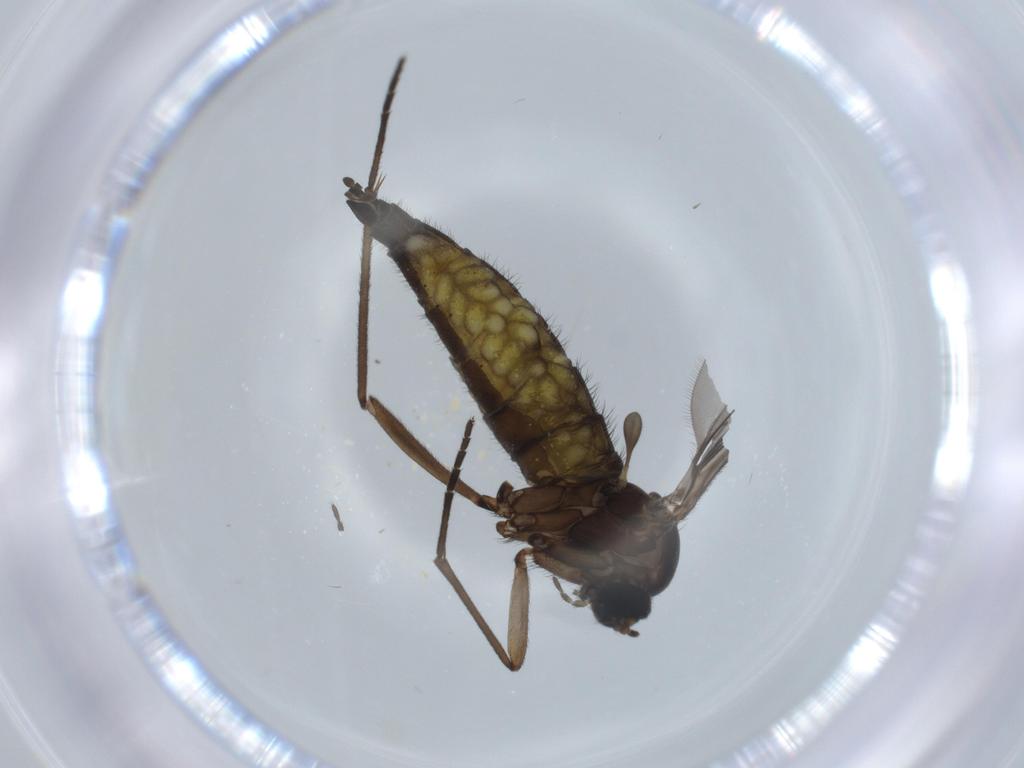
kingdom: Animalia
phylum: Arthropoda
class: Insecta
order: Diptera
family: Sciaridae
